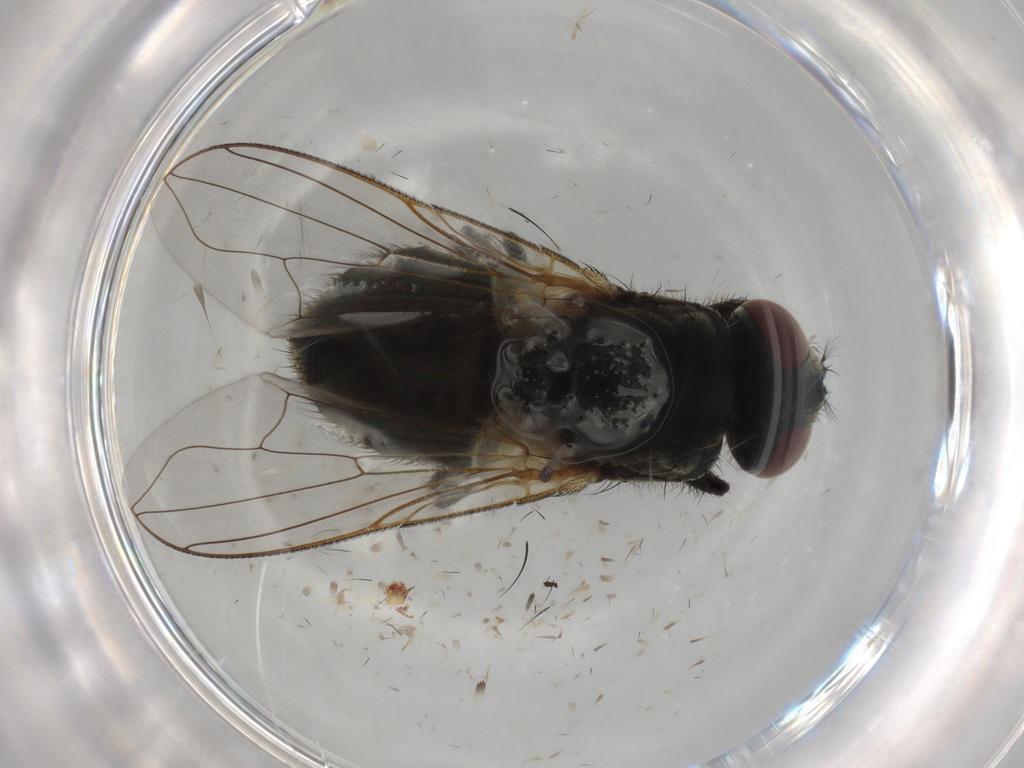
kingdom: Animalia
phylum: Arthropoda
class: Insecta
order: Diptera
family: Muscidae
